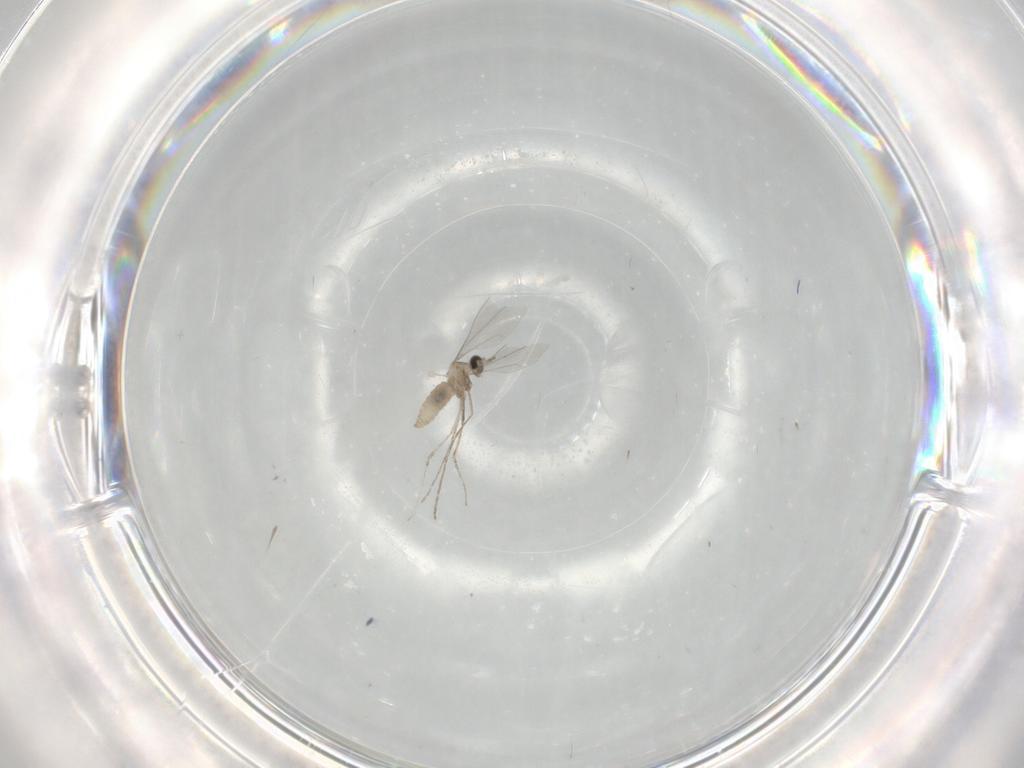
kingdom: Animalia
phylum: Arthropoda
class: Insecta
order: Diptera
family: Cecidomyiidae
